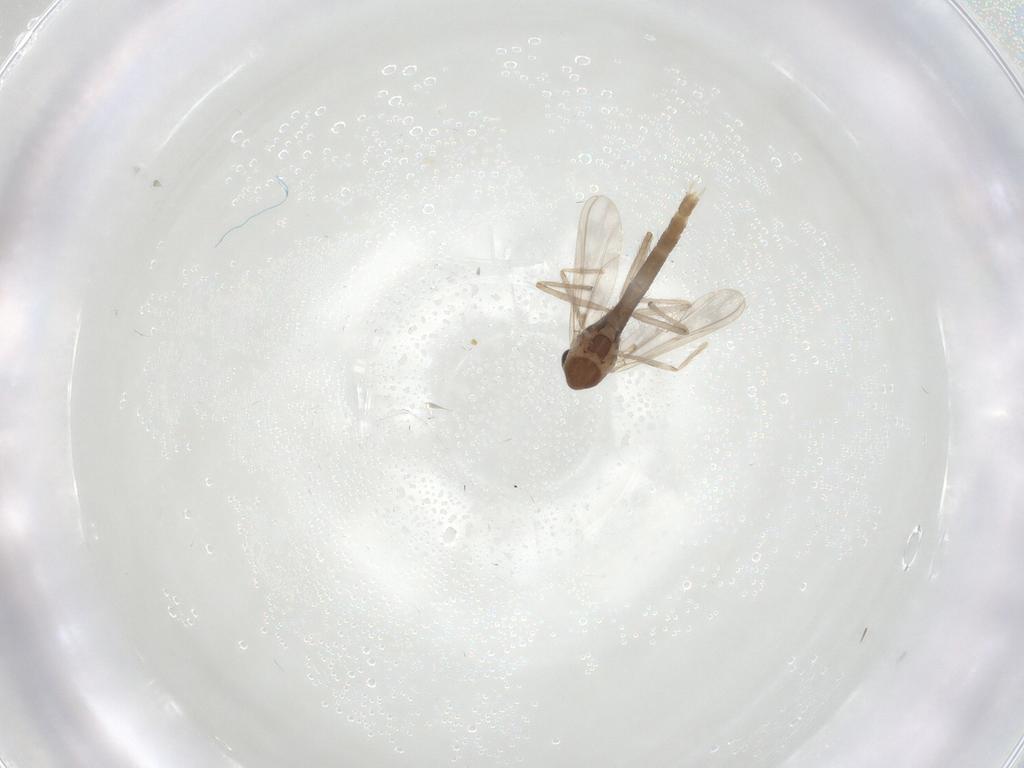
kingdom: Animalia
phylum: Arthropoda
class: Insecta
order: Diptera
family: Chironomidae
